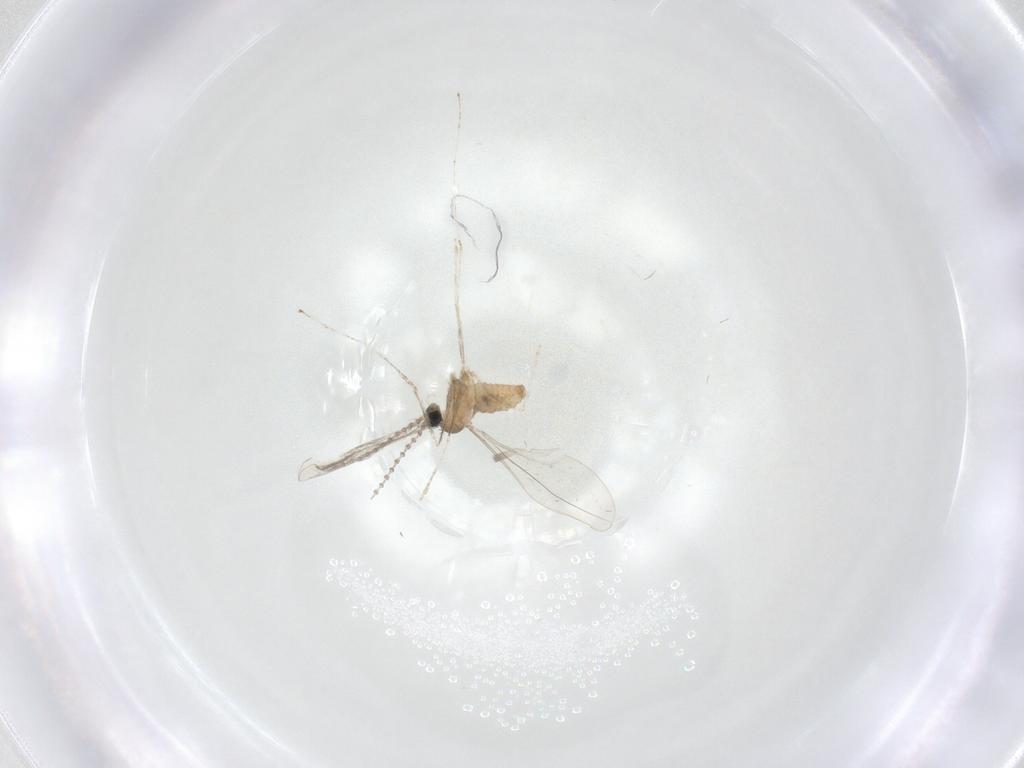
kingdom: Animalia
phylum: Arthropoda
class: Insecta
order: Diptera
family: Cecidomyiidae
